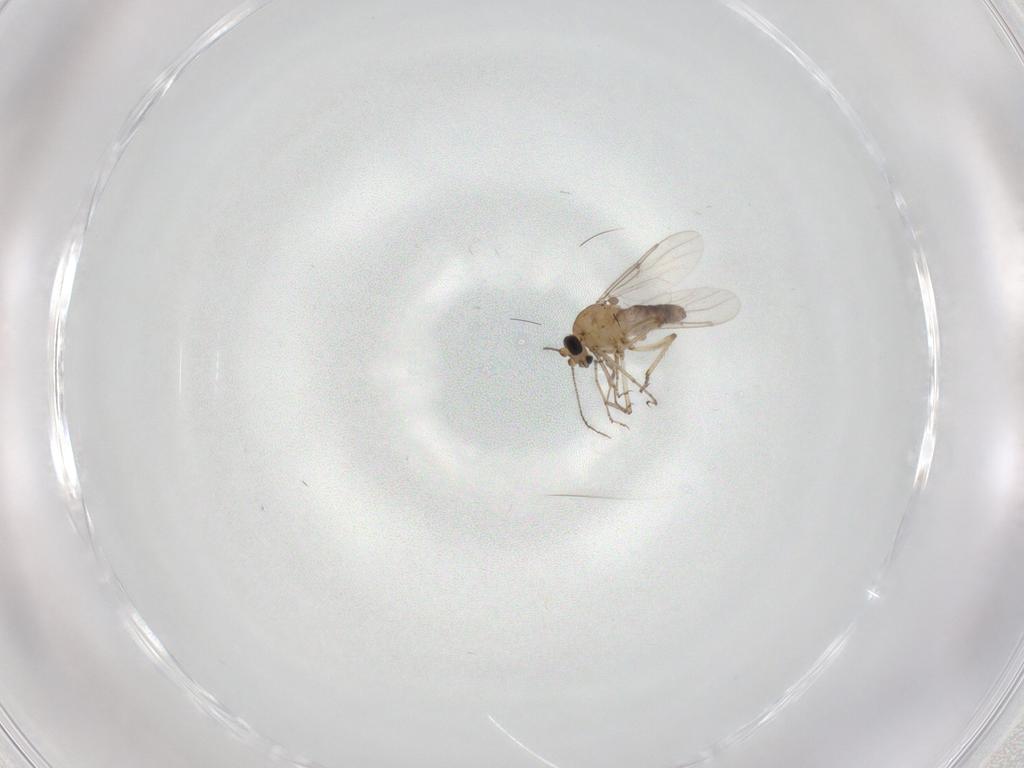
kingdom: Animalia
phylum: Arthropoda
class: Insecta
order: Diptera
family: Ceratopogonidae
